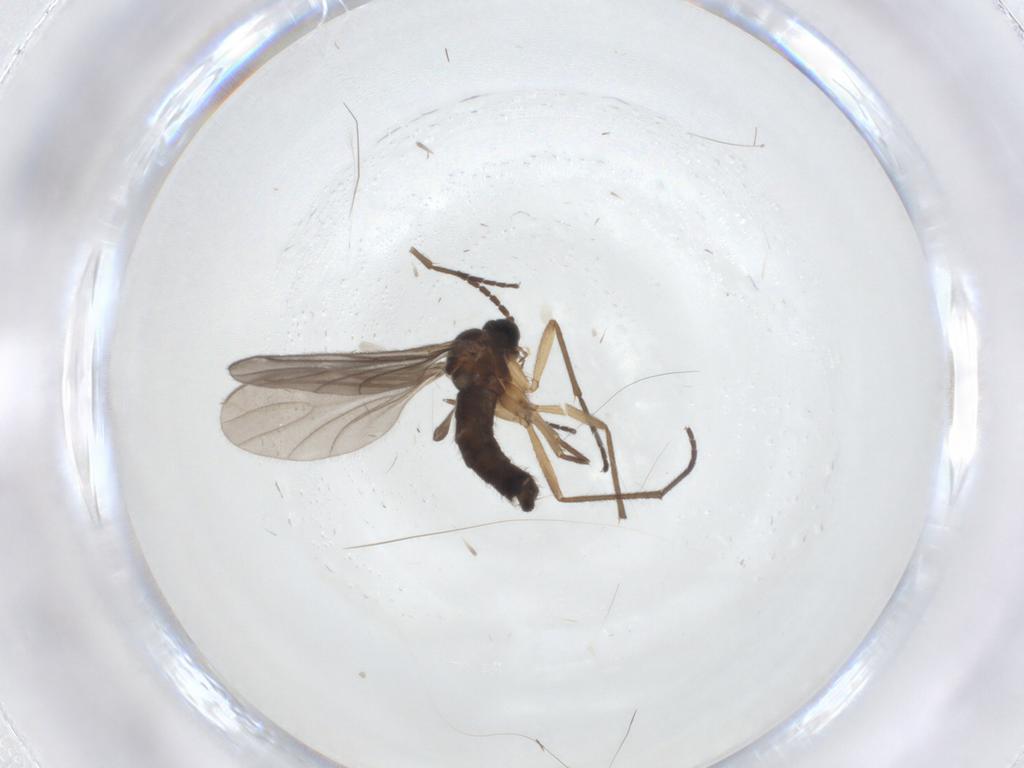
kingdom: Animalia
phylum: Arthropoda
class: Insecta
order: Diptera
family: Sciaridae
